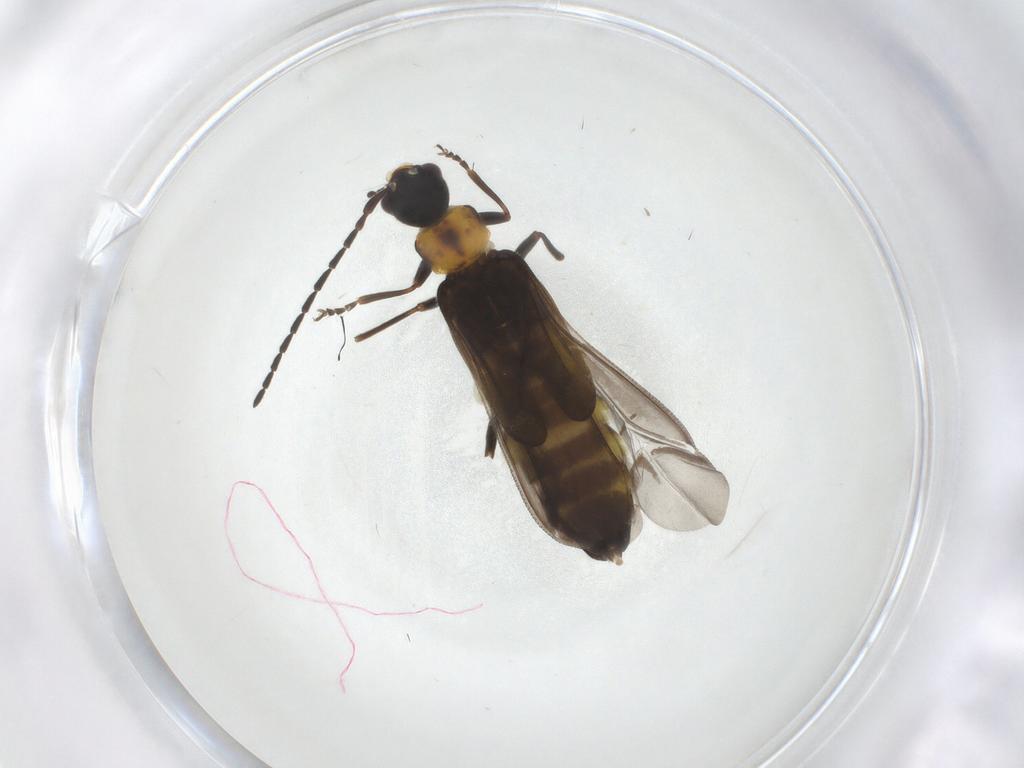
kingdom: Animalia
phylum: Arthropoda
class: Insecta
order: Coleoptera
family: Cantharidae
